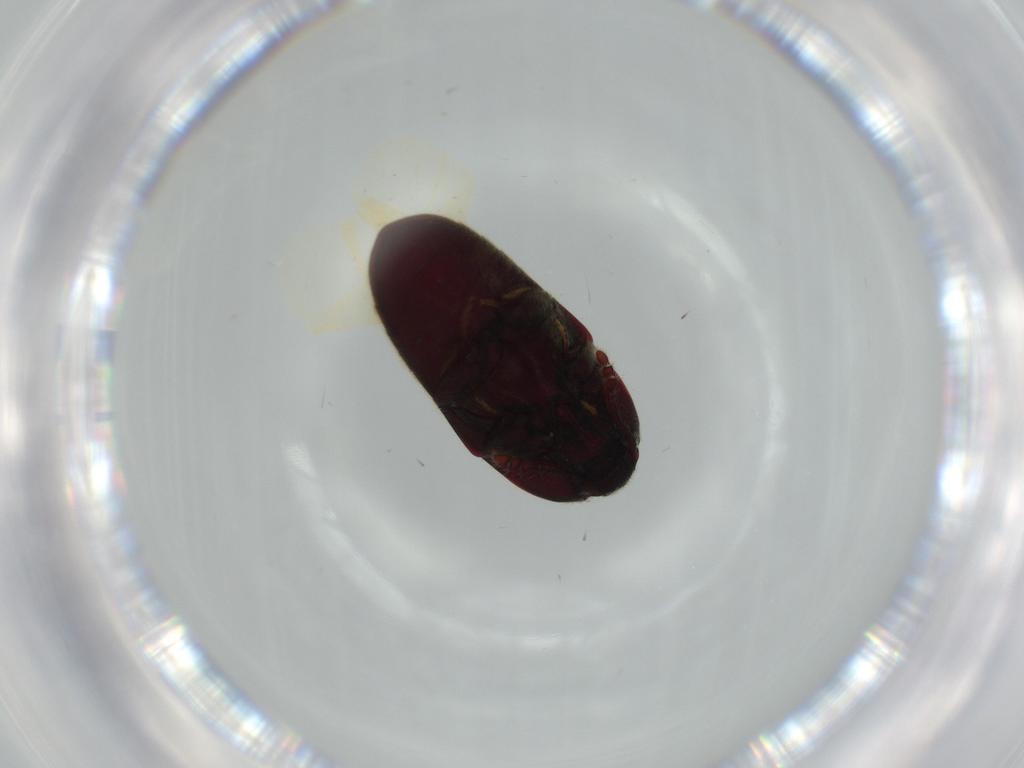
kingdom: Animalia
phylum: Arthropoda
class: Insecta
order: Coleoptera
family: Throscidae
